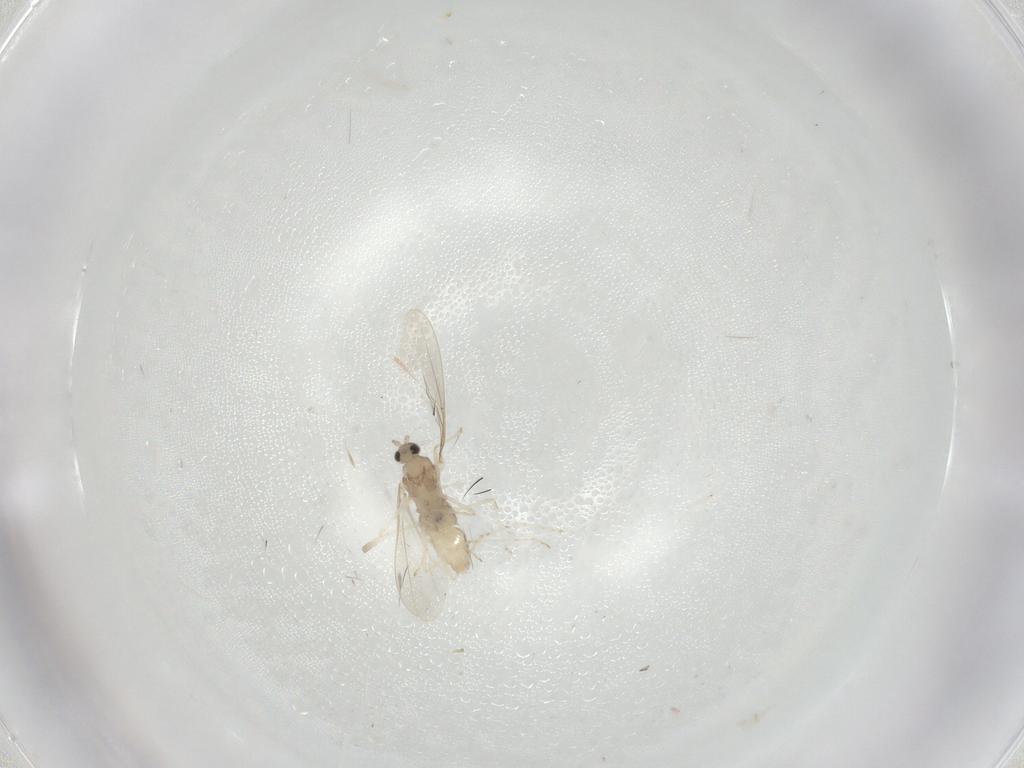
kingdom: Animalia
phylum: Arthropoda
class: Insecta
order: Diptera
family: Cecidomyiidae
